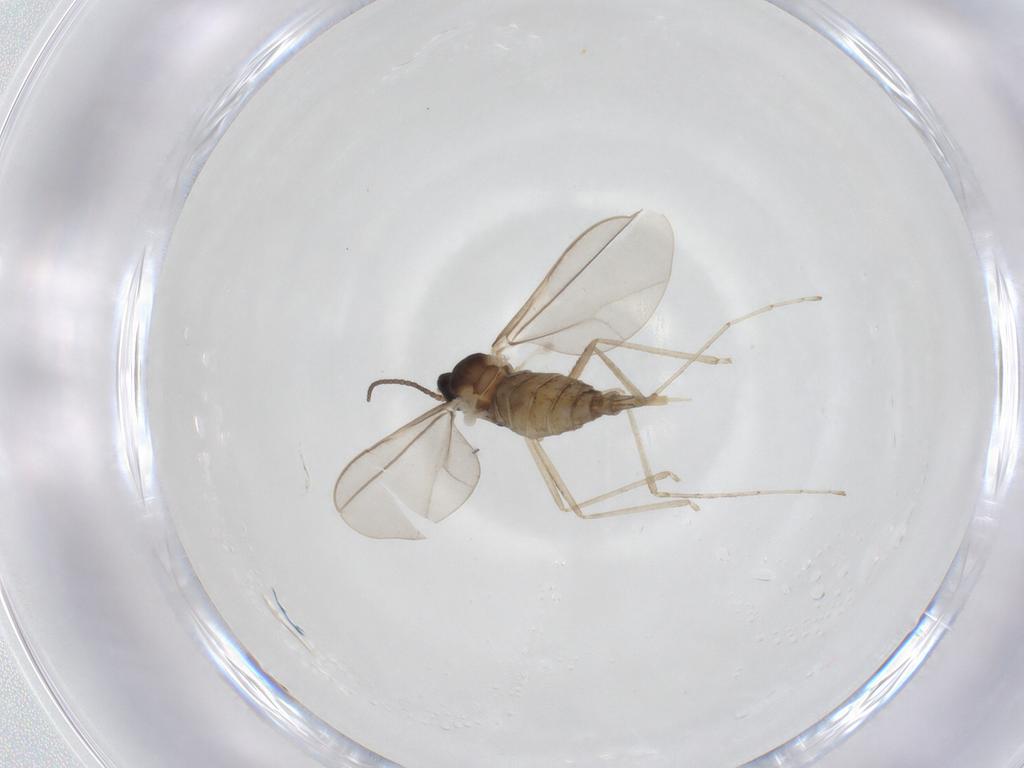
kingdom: Animalia
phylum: Arthropoda
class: Insecta
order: Diptera
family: Cecidomyiidae
